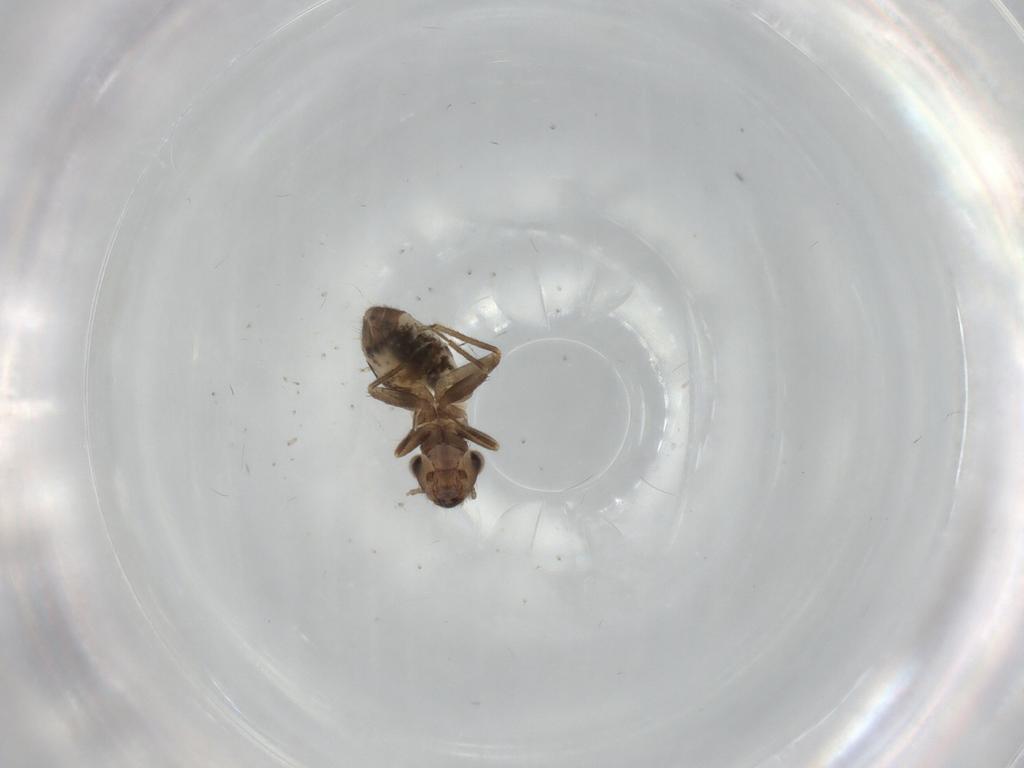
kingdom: Animalia
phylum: Arthropoda
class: Insecta
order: Psocodea
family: Lepidopsocidae
